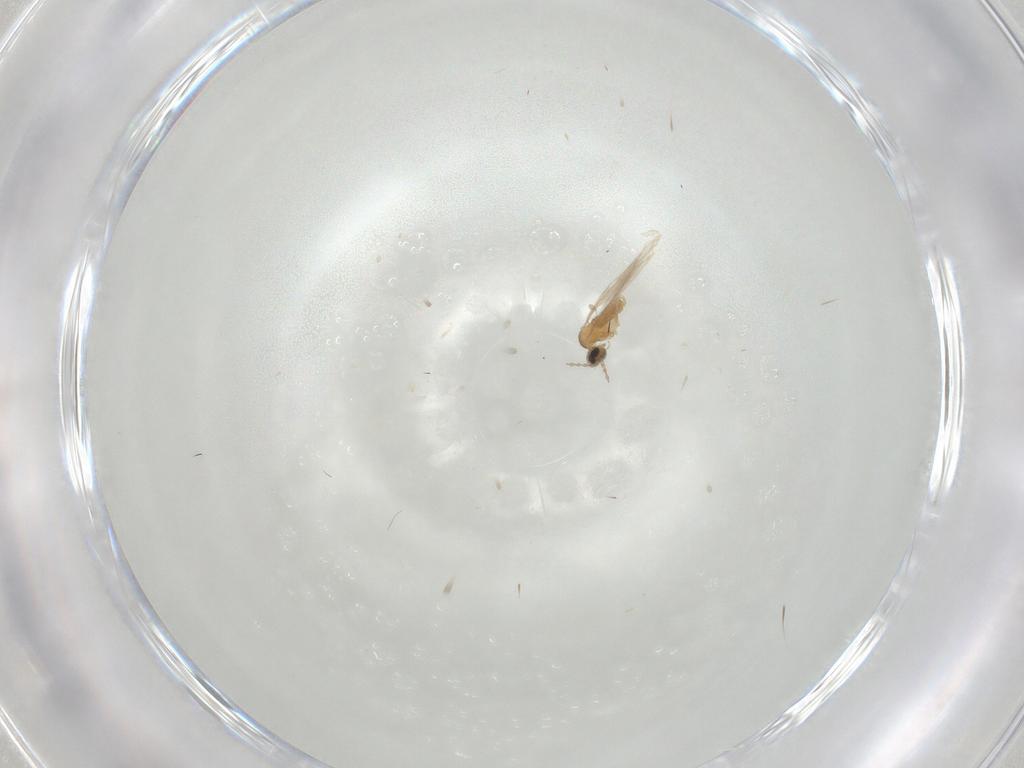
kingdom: Animalia
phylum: Arthropoda
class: Insecta
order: Diptera
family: Cecidomyiidae
